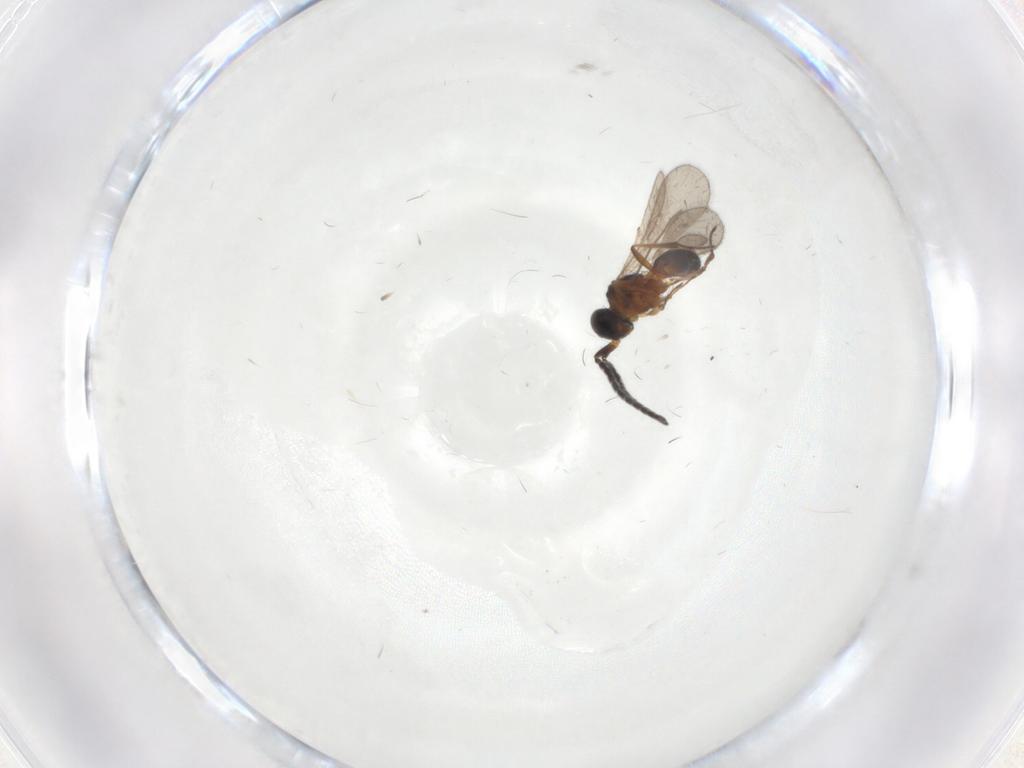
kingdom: Animalia
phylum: Arthropoda
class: Insecta
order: Hymenoptera
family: Scelionidae
